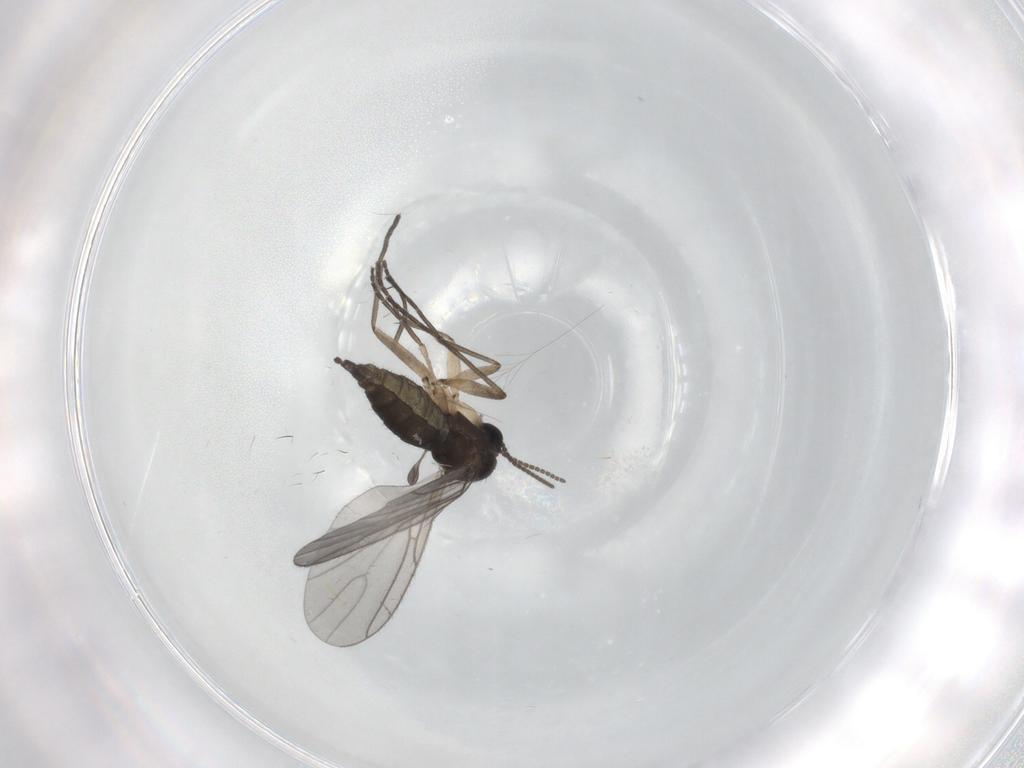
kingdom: Animalia
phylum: Arthropoda
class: Insecta
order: Diptera
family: Sciaridae
